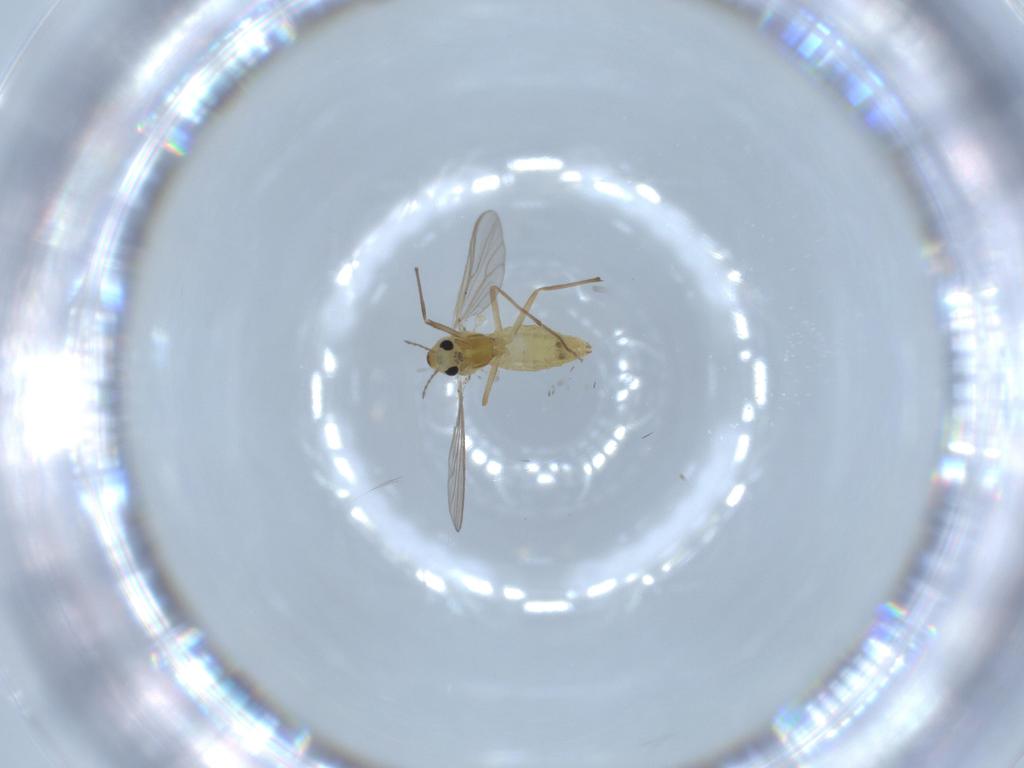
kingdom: Animalia
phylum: Arthropoda
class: Insecta
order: Diptera
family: Chironomidae
